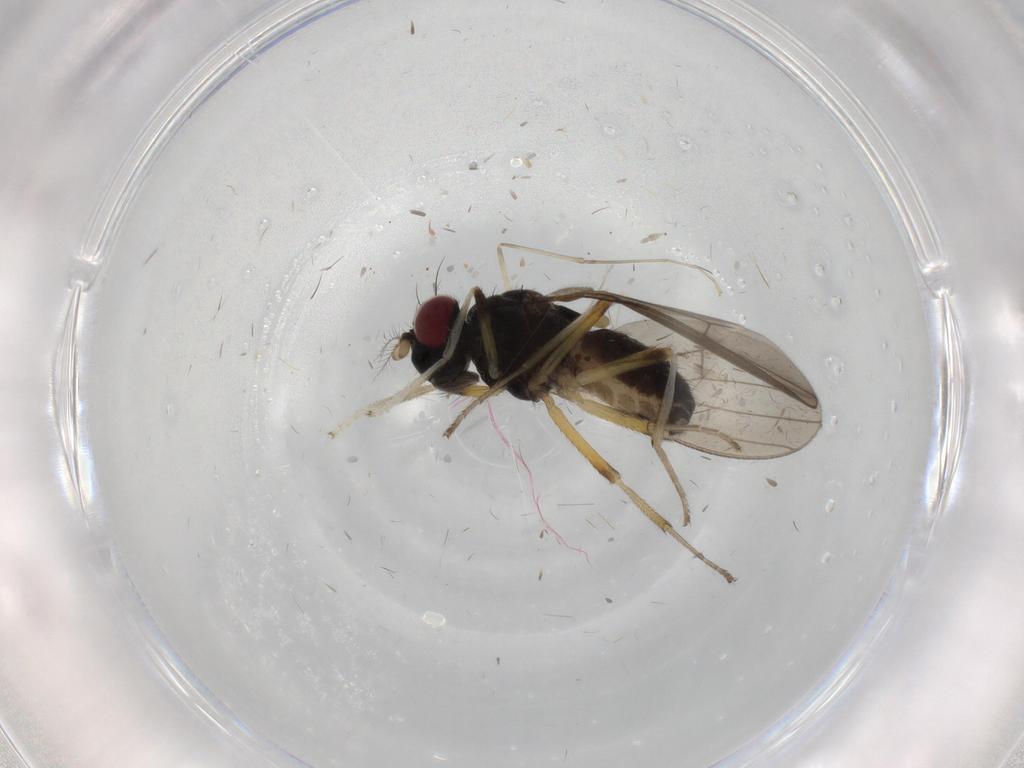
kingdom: Animalia
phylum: Arthropoda
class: Insecta
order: Diptera
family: Lauxaniidae
